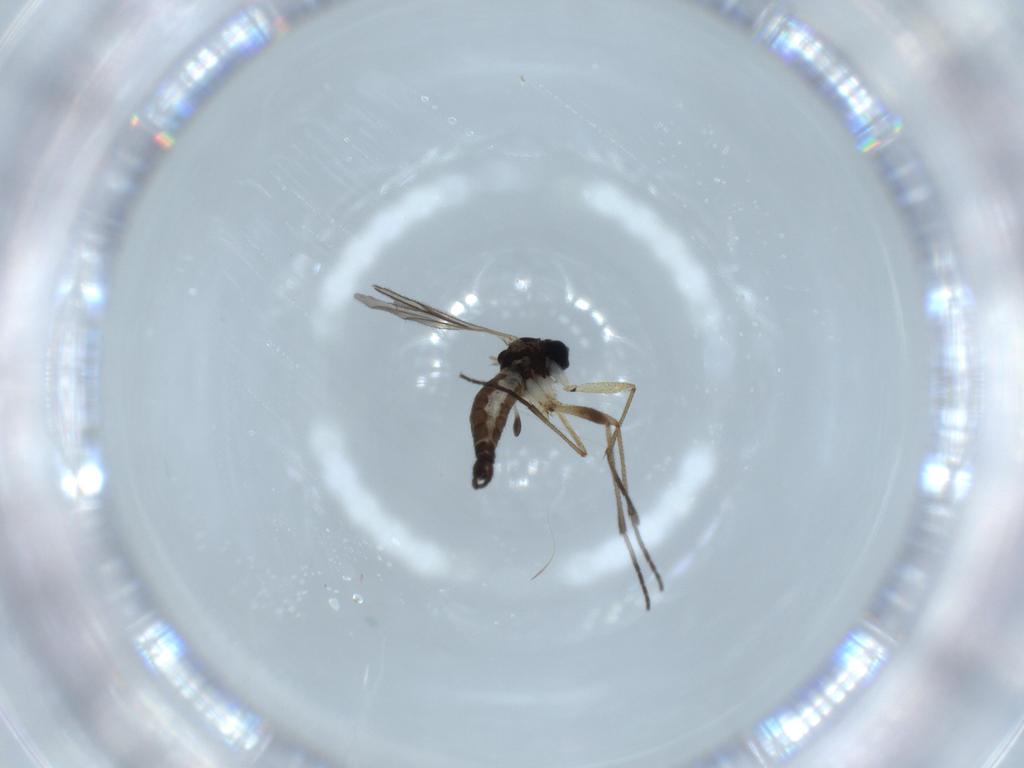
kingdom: Animalia
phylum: Arthropoda
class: Insecta
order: Diptera
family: Sciaridae
